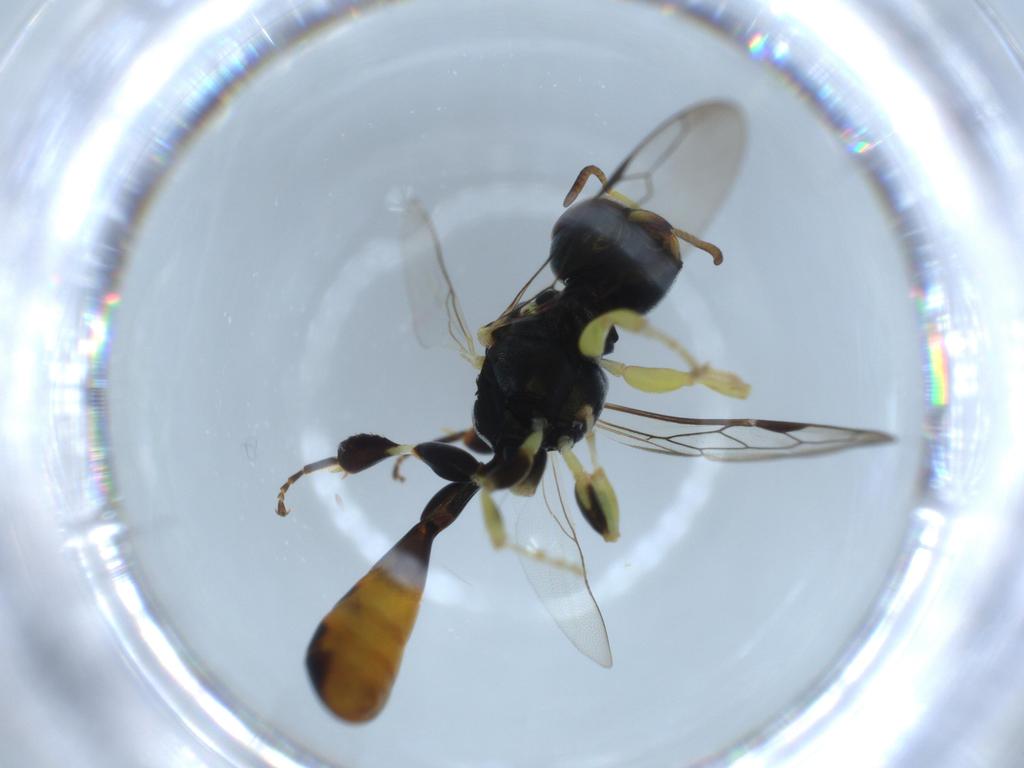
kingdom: Animalia
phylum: Arthropoda
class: Insecta
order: Hymenoptera
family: Crabronidae
